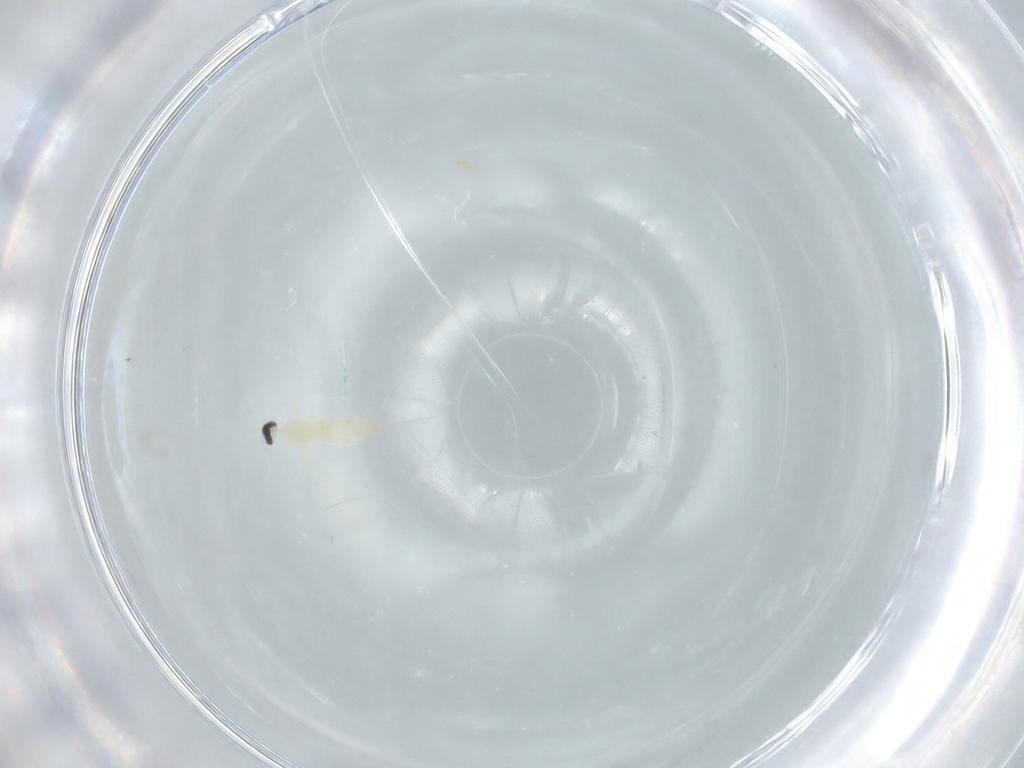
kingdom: Animalia
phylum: Arthropoda
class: Insecta
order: Diptera
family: Cecidomyiidae
